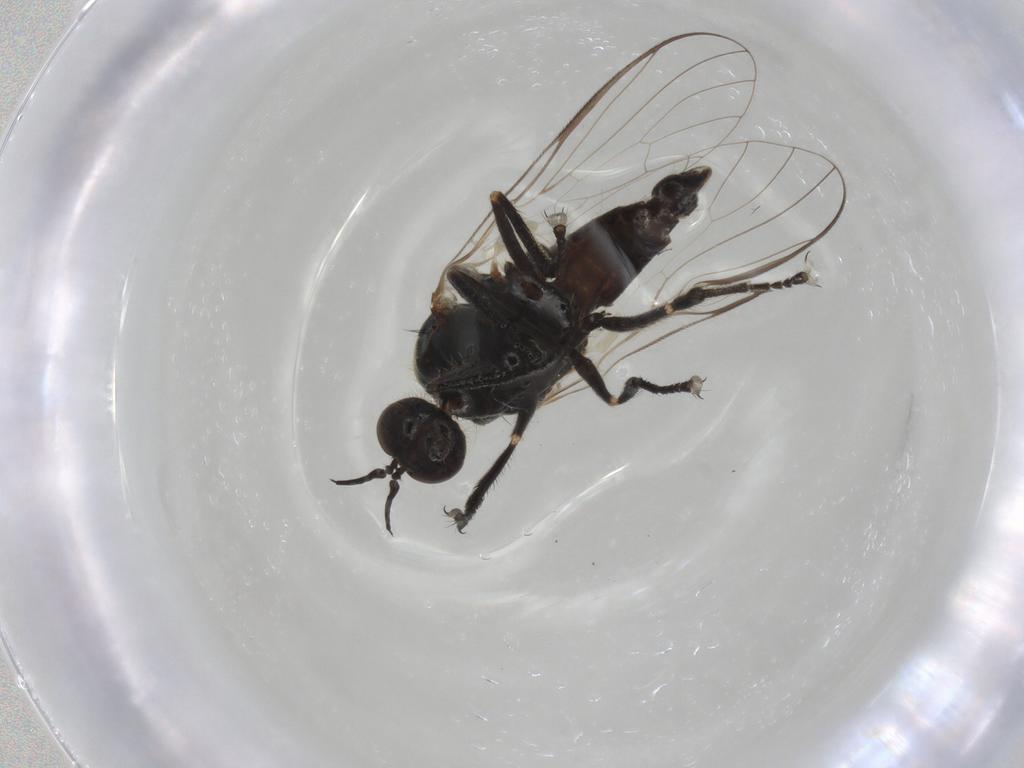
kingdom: Animalia
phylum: Arthropoda
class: Insecta
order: Diptera
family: Empididae
